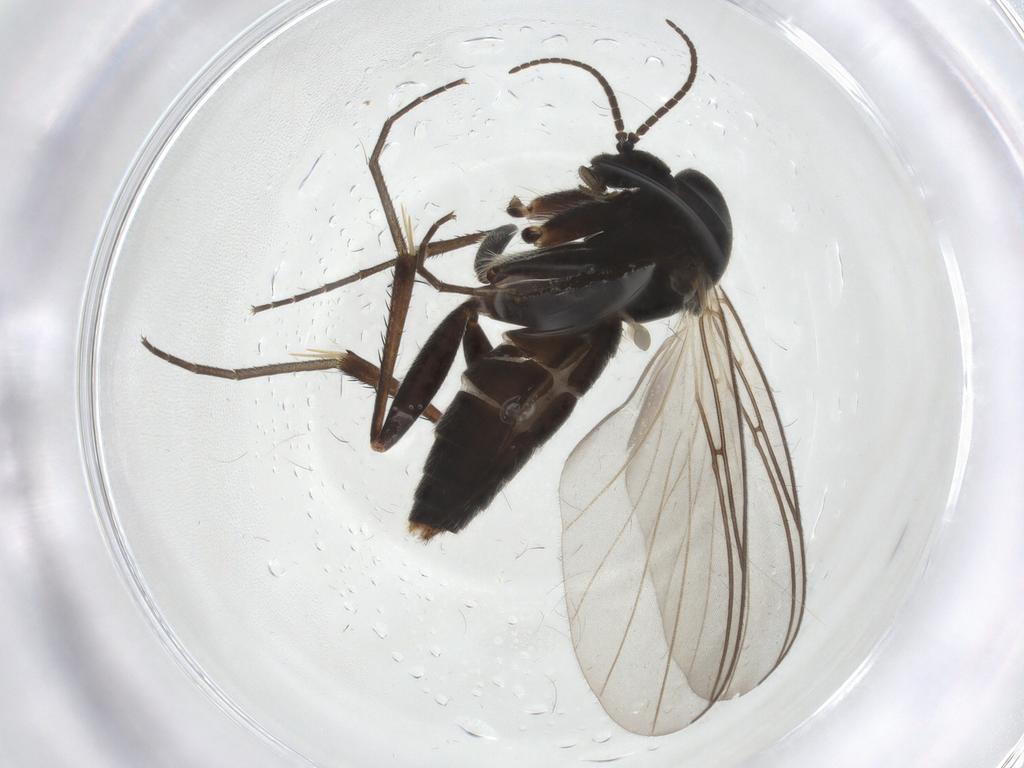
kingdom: Animalia
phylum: Arthropoda
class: Insecta
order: Diptera
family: Mycetophilidae
